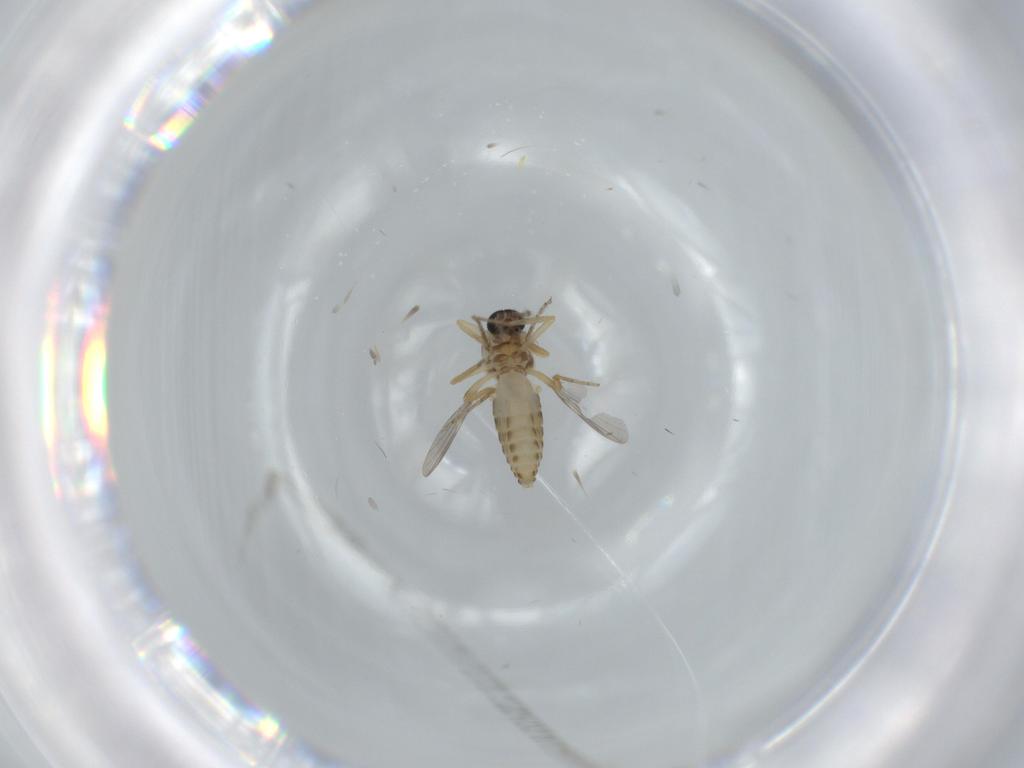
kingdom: Animalia
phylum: Arthropoda
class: Insecta
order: Diptera
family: Ceratopogonidae
